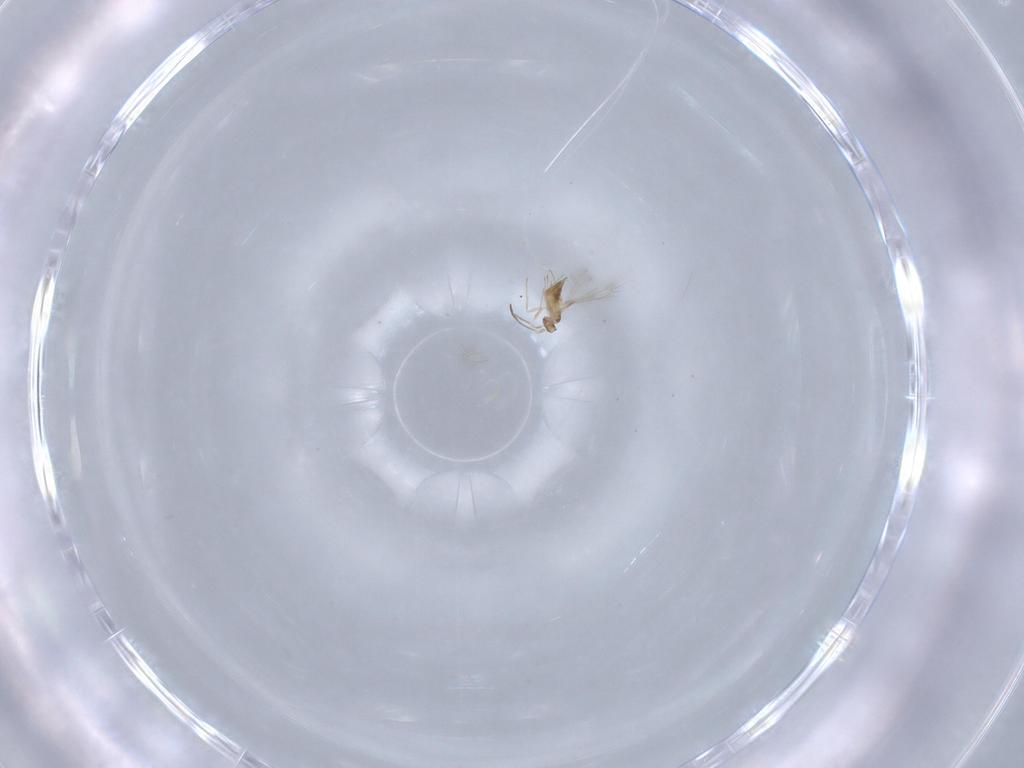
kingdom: Animalia
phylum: Arthropoda
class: Insecta
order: Hymenoptera
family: Mymaridae
